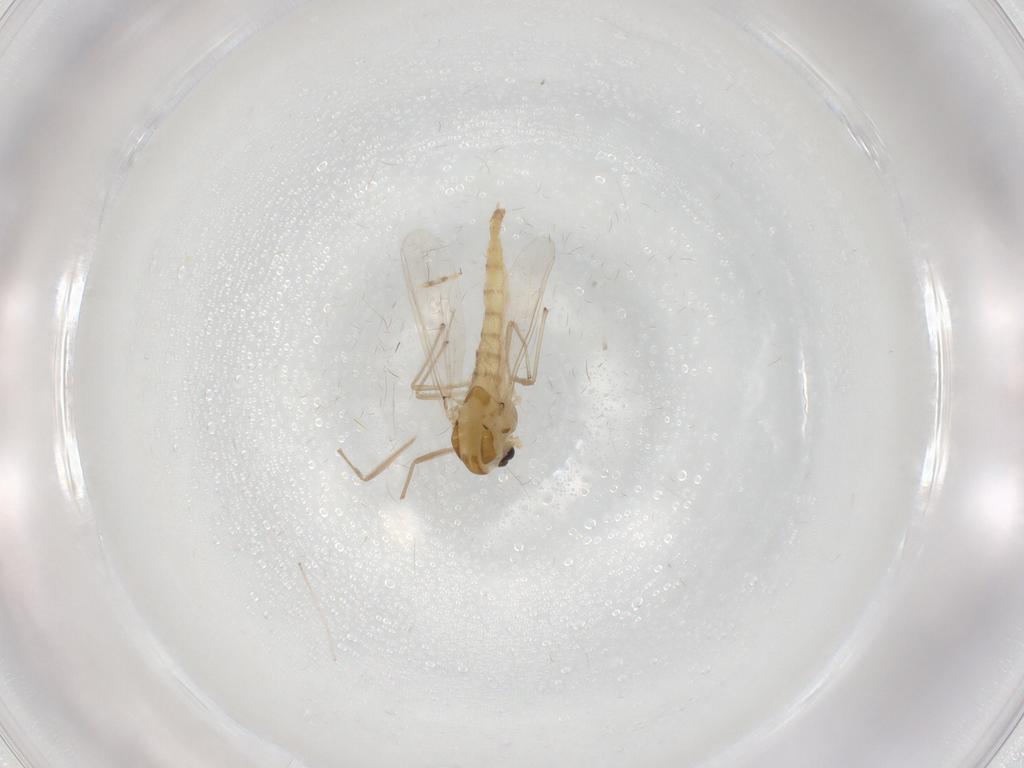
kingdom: Animalia
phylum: Arthropoda
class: Insecta
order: Diptera
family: Chironomidae
